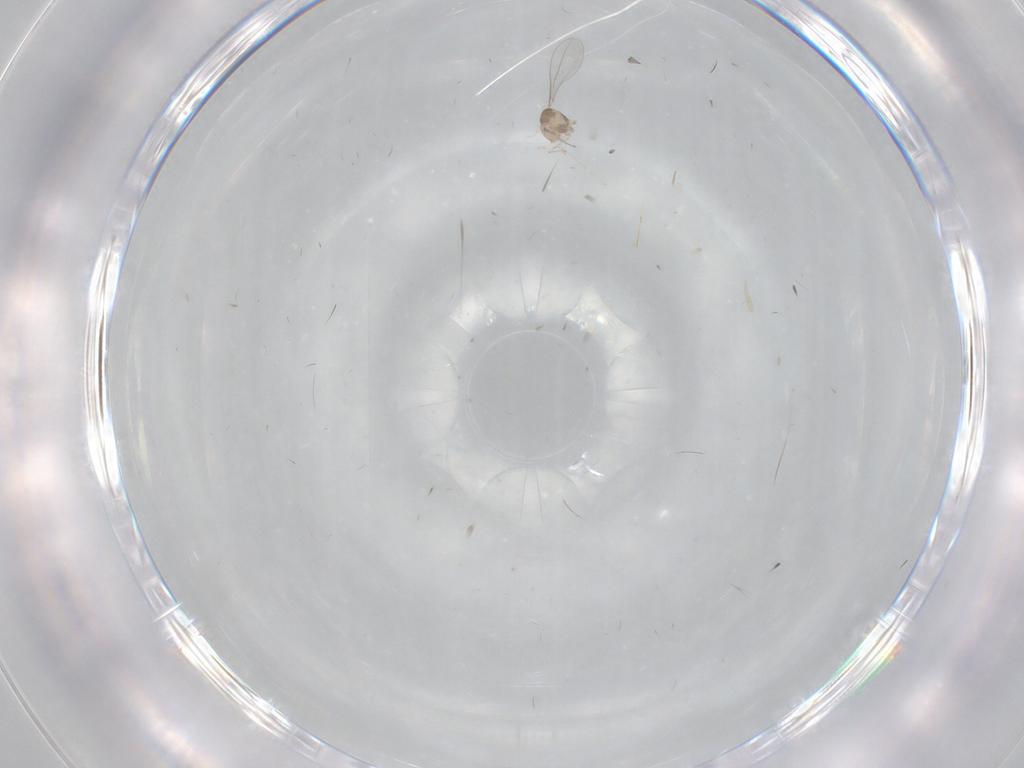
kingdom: Animalia
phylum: Arthropoda
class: Insecta
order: Diptera
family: Cecidomyiidae
